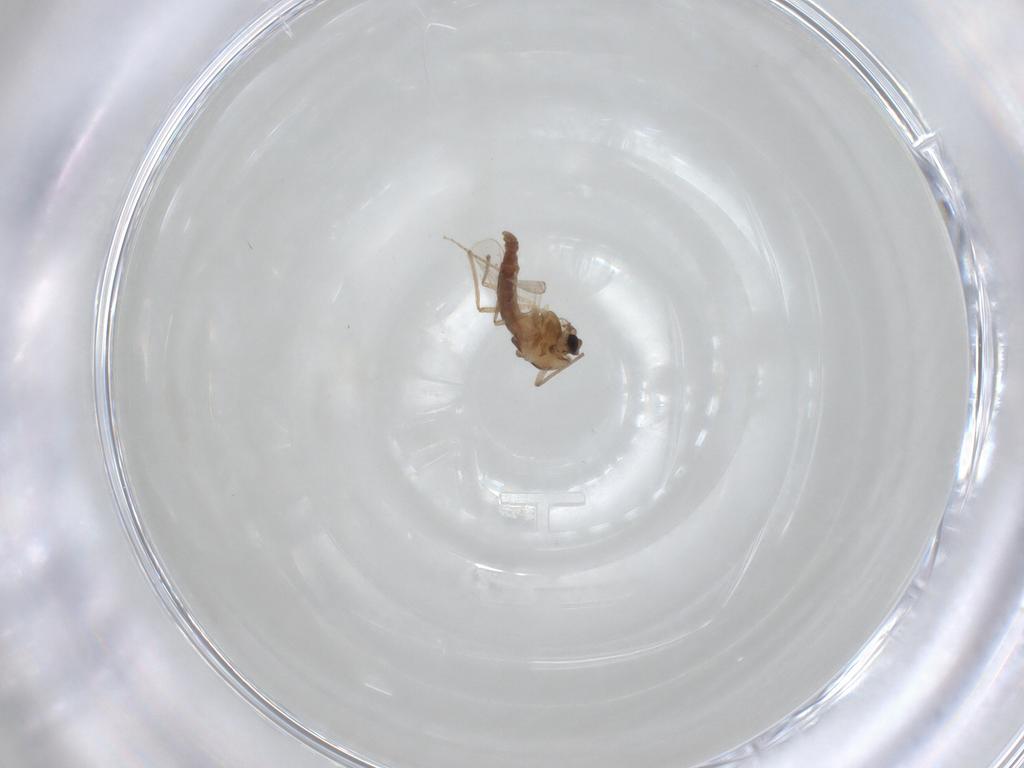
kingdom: Animalia
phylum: Arthropoda
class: Insecta
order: Diptera
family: Chironomidae
